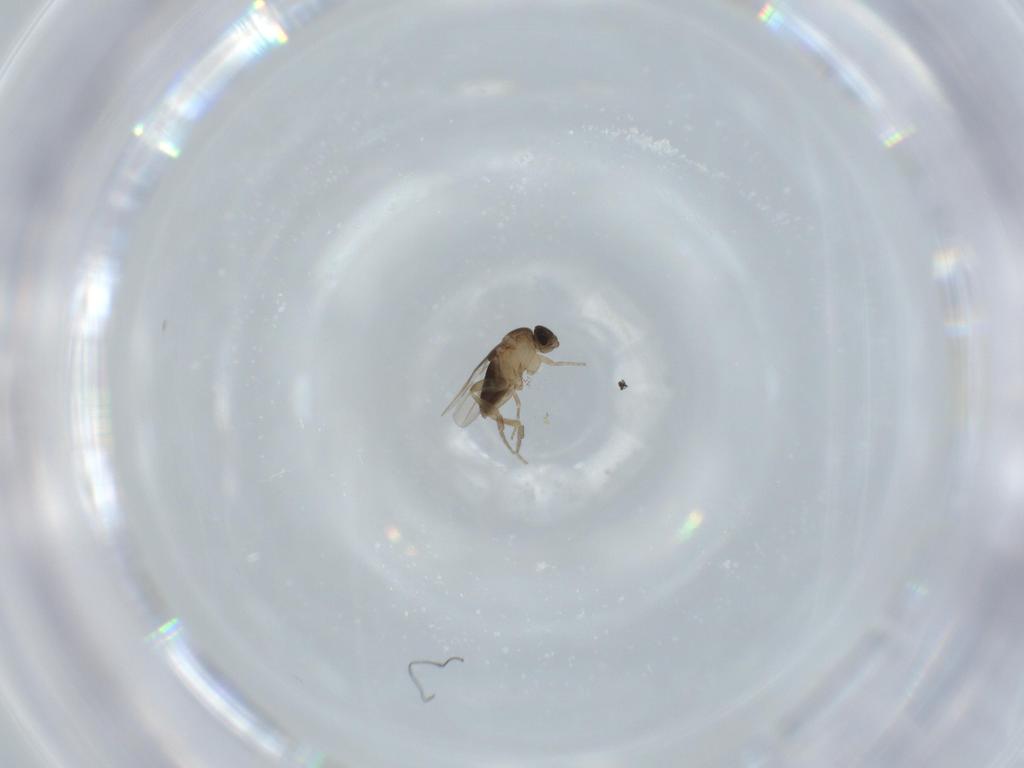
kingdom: Animalia
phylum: Arthropoda
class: Insecta
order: Diptera
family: Phoridae
